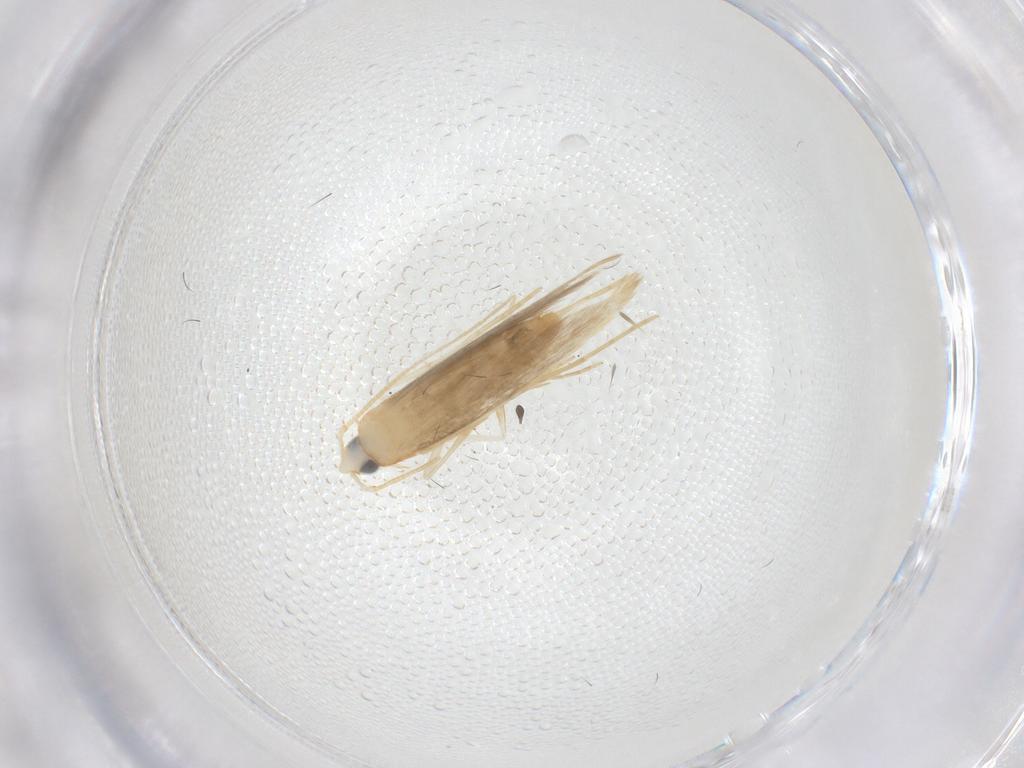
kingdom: Animalia
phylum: Arthropoda
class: Insecta
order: Lepidoptera
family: Tineidae
